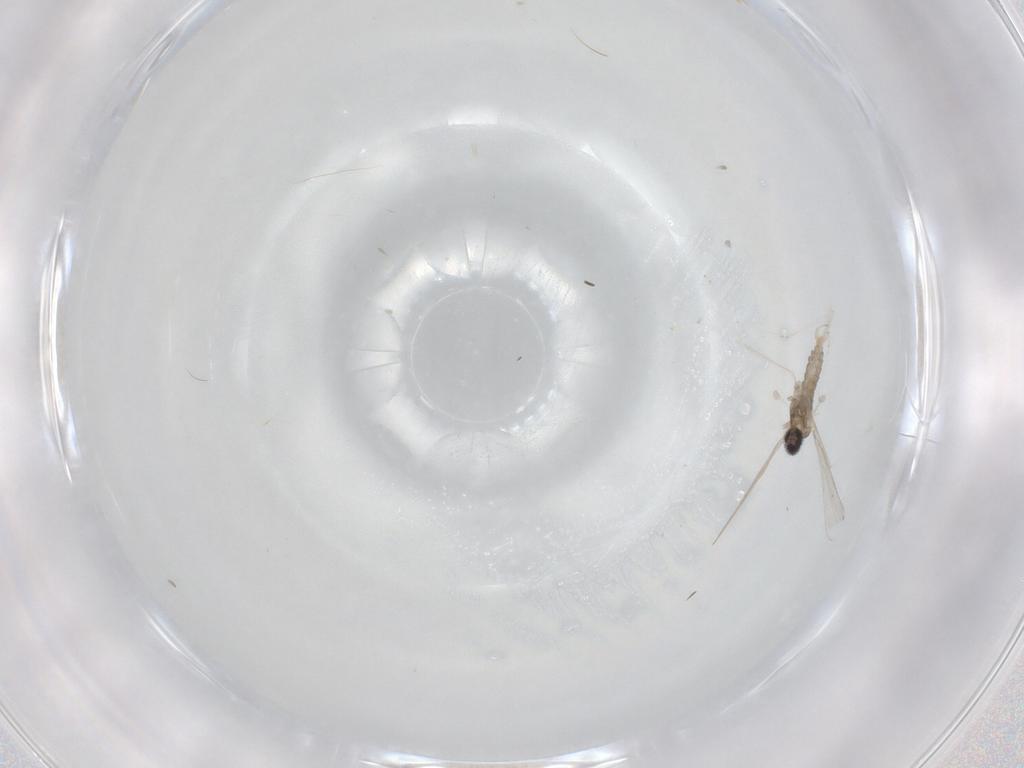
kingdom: Animalia
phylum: Arthropoda
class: Insecta
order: Diptera
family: Cecidomyiidae
